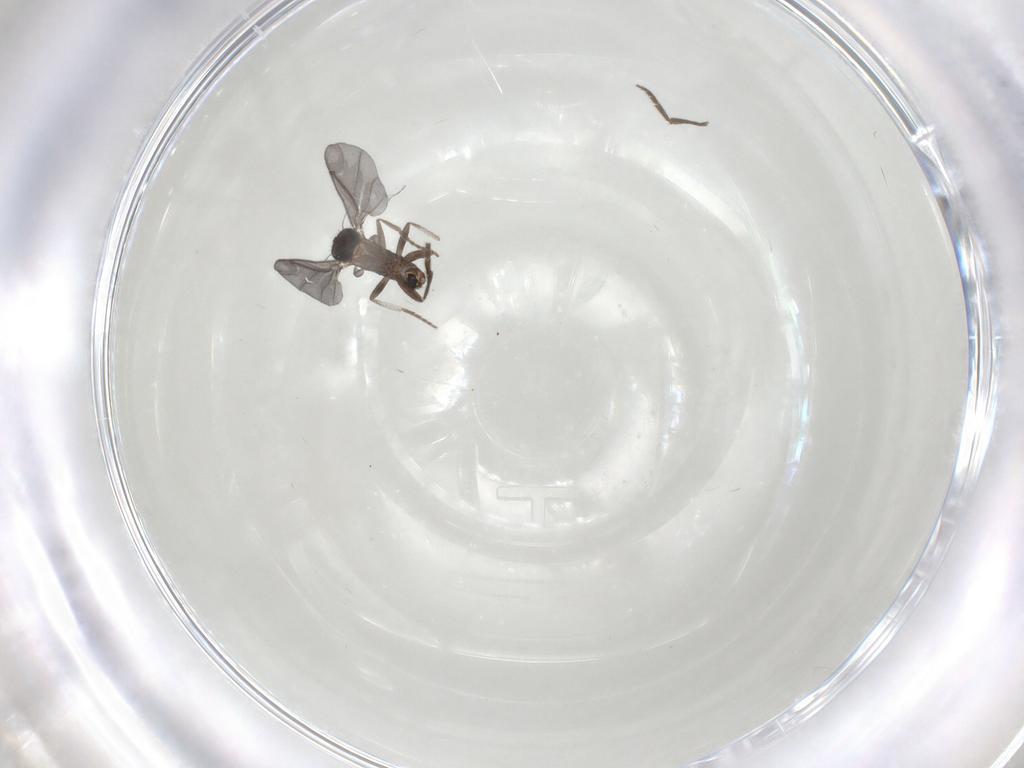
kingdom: Animalia
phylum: Arthropoda
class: Insecta
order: Diptera
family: Phoridae
